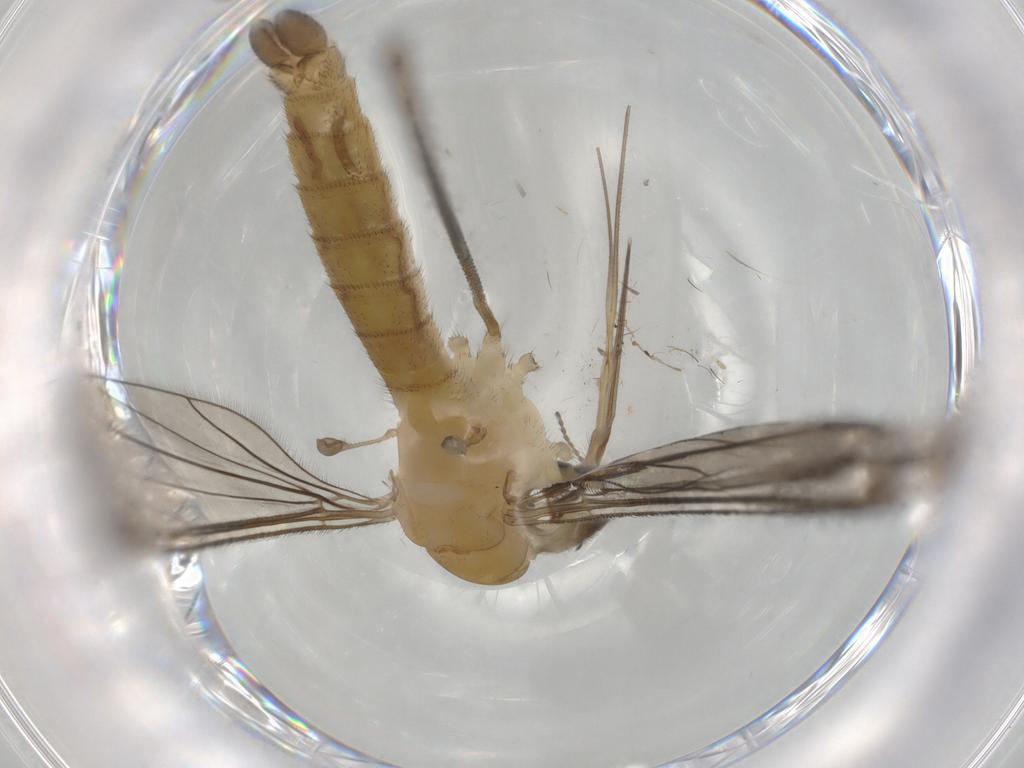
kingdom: Animalia
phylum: Arthropoda
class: Insecta
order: Diptera
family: Chironomidae
